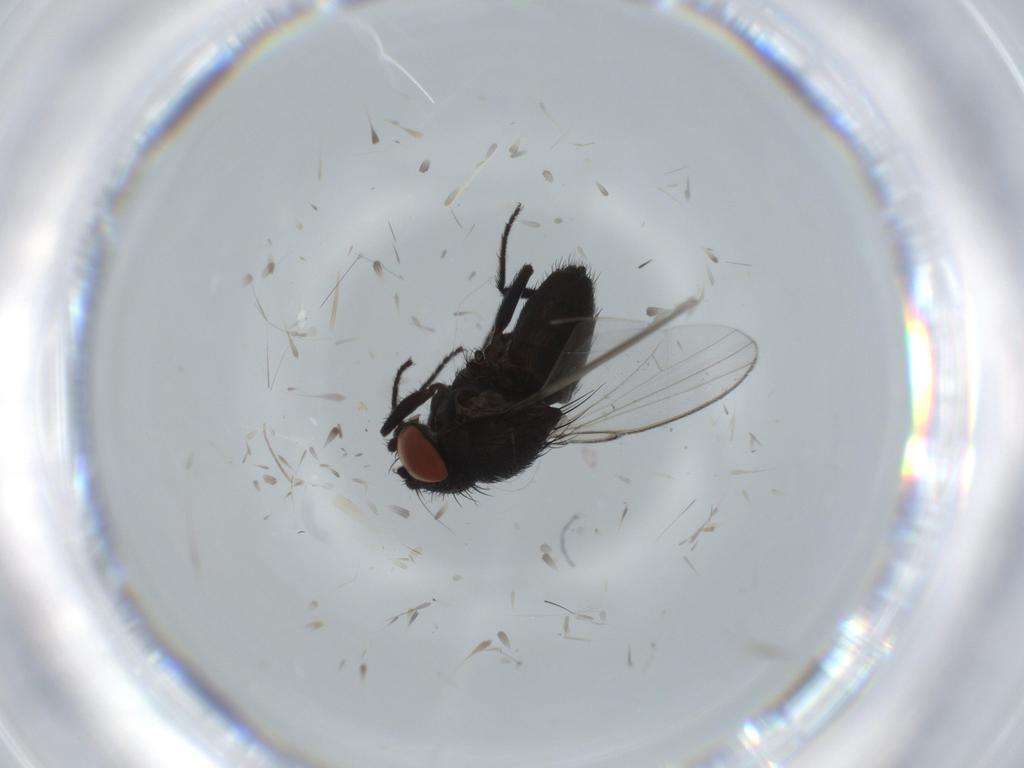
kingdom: Animalia
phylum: Arthropoda
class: Insecta
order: Diptera
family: Milichiidae
